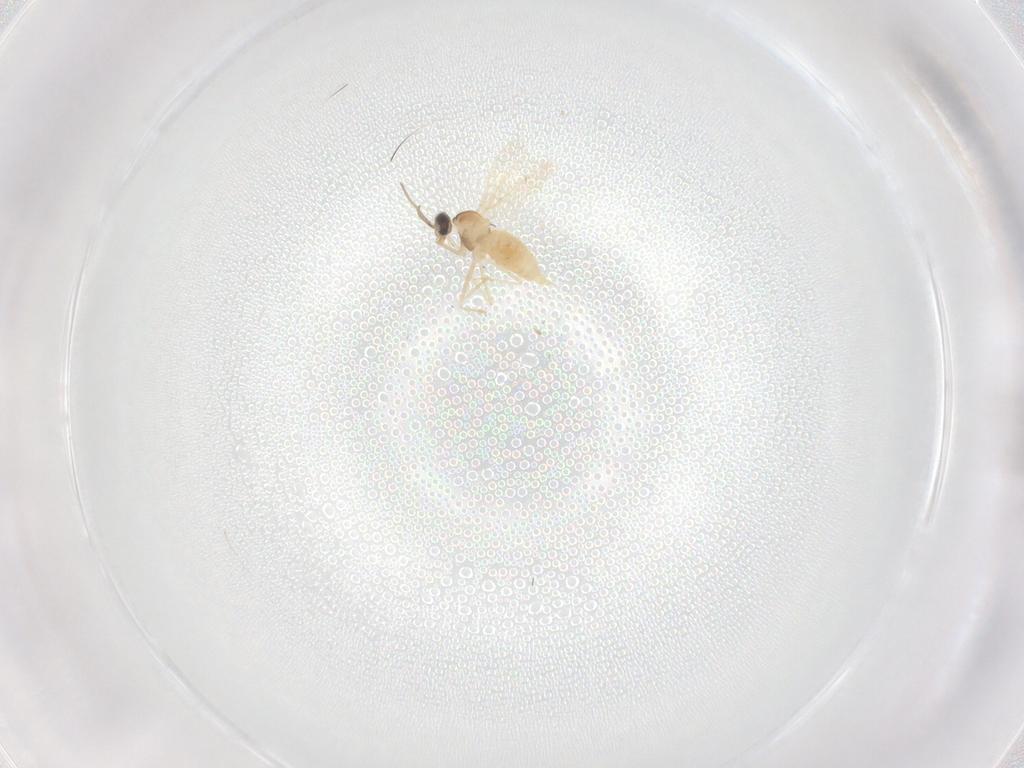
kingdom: Animalia
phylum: Arthropoda
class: Insecta
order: Diptera
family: Cecidomyiidae
